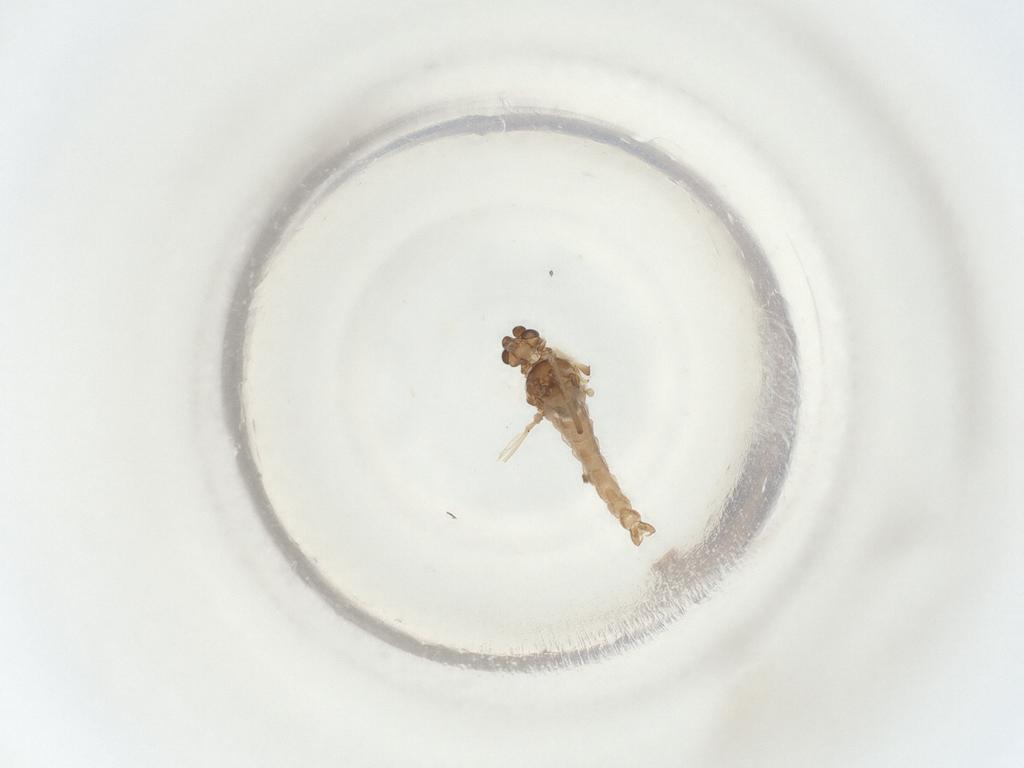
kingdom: Animalia
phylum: Arthropoda
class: Insecta
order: Diptera
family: Chironomidae
